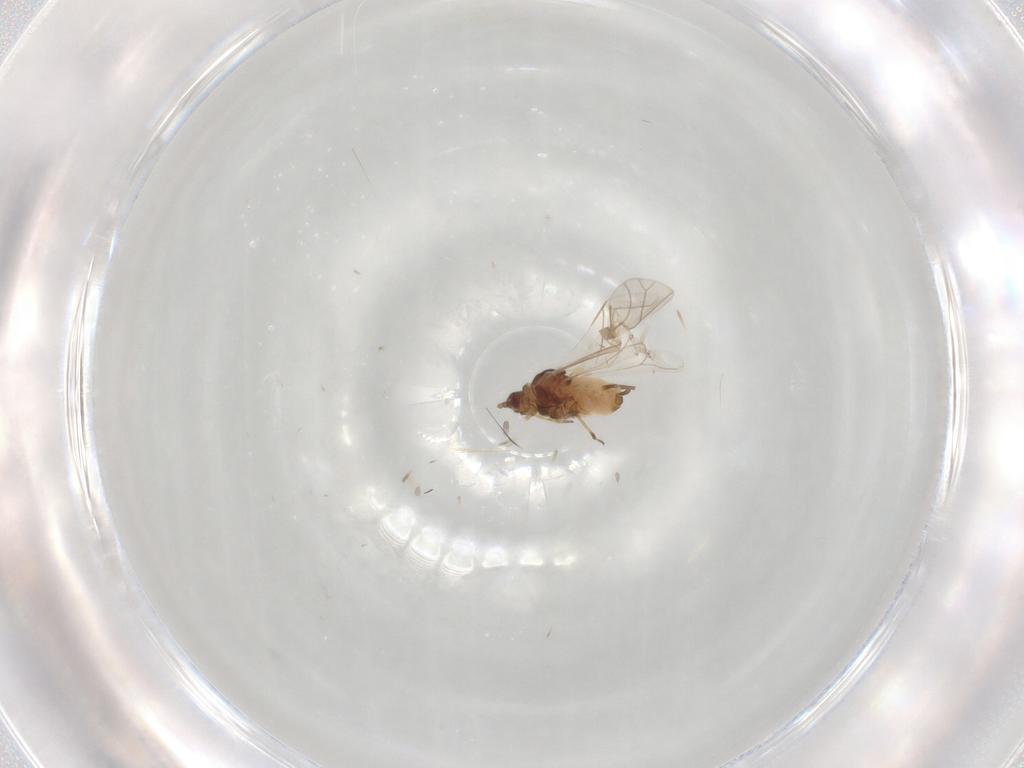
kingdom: Animalia
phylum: Arthropoda
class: Insecta
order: Hemiptera
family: Aphididae
